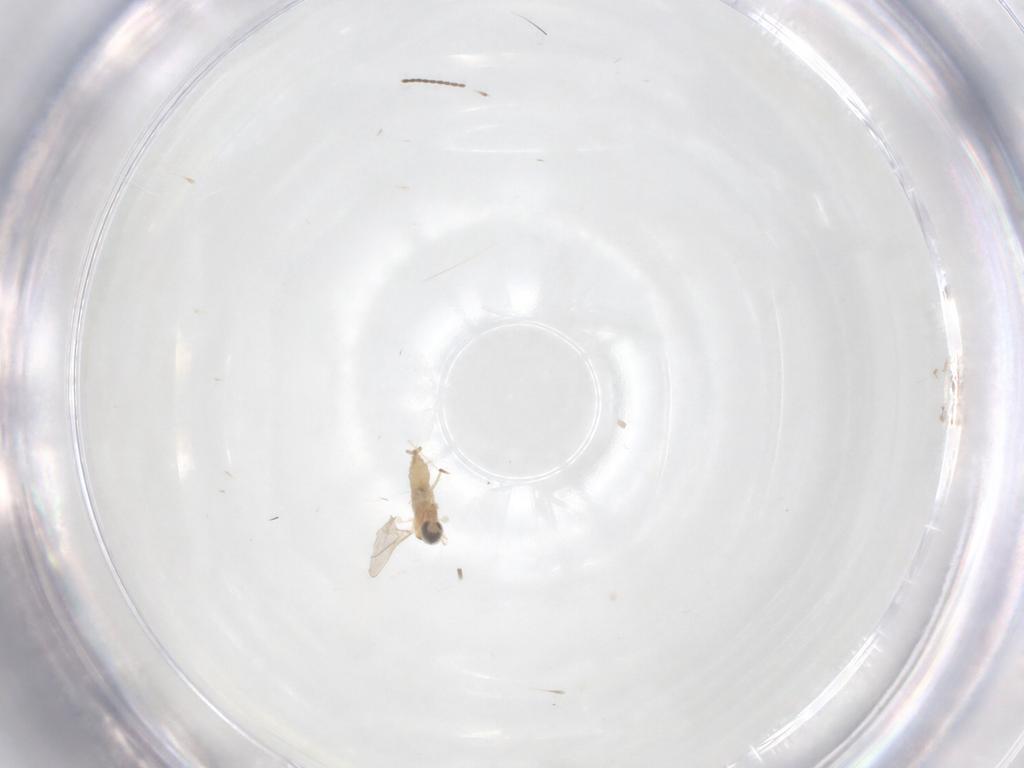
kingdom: Animalia
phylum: Arthropoda
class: Insecta
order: Diptera
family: Sciaridae
